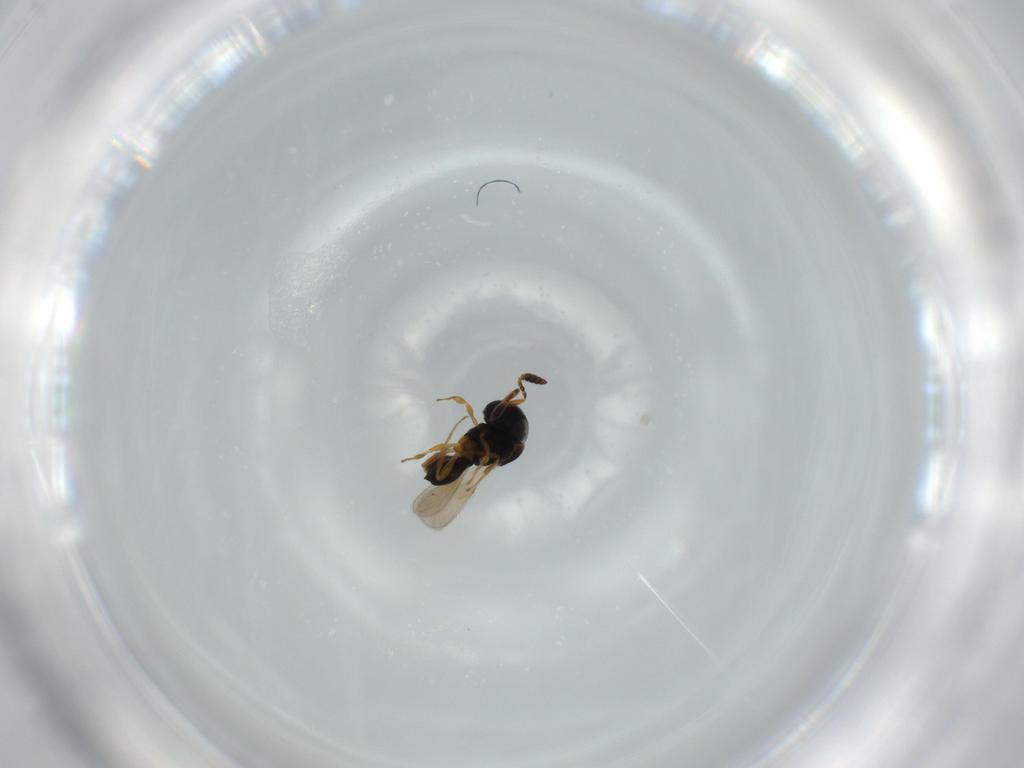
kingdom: Animalia
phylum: Arthropoda
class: Insecta
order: Hymenoptera
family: Scelionidae
